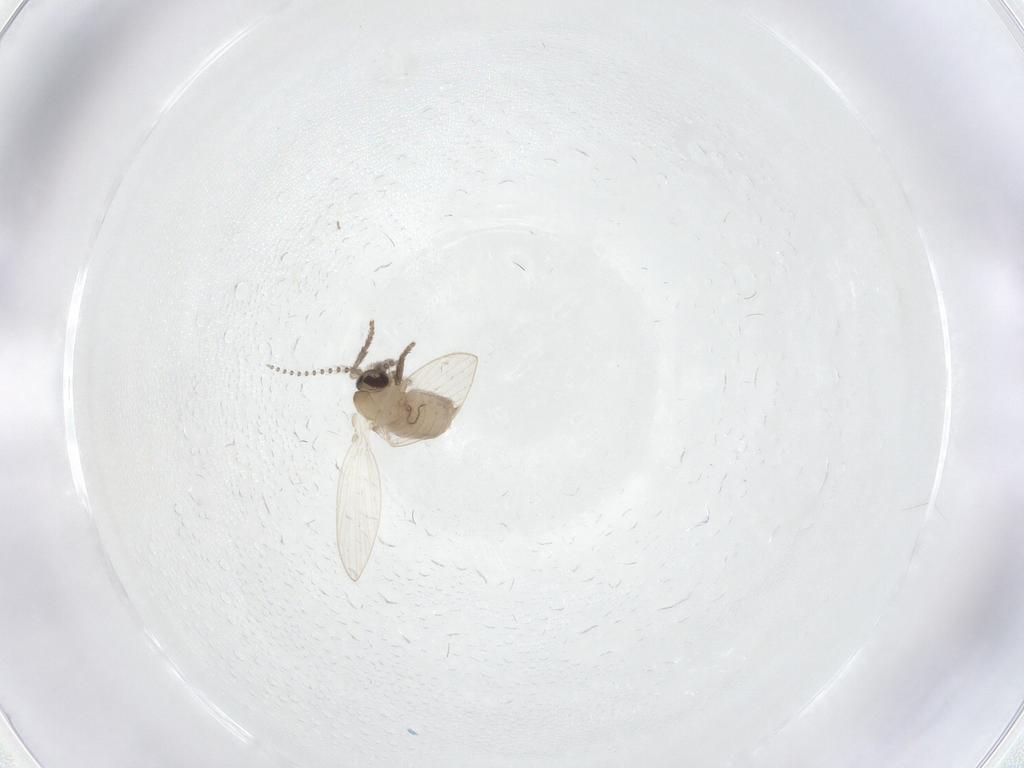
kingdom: Animalia
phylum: Arthropoda
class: Insecta
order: Diptera
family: Psychodidae
